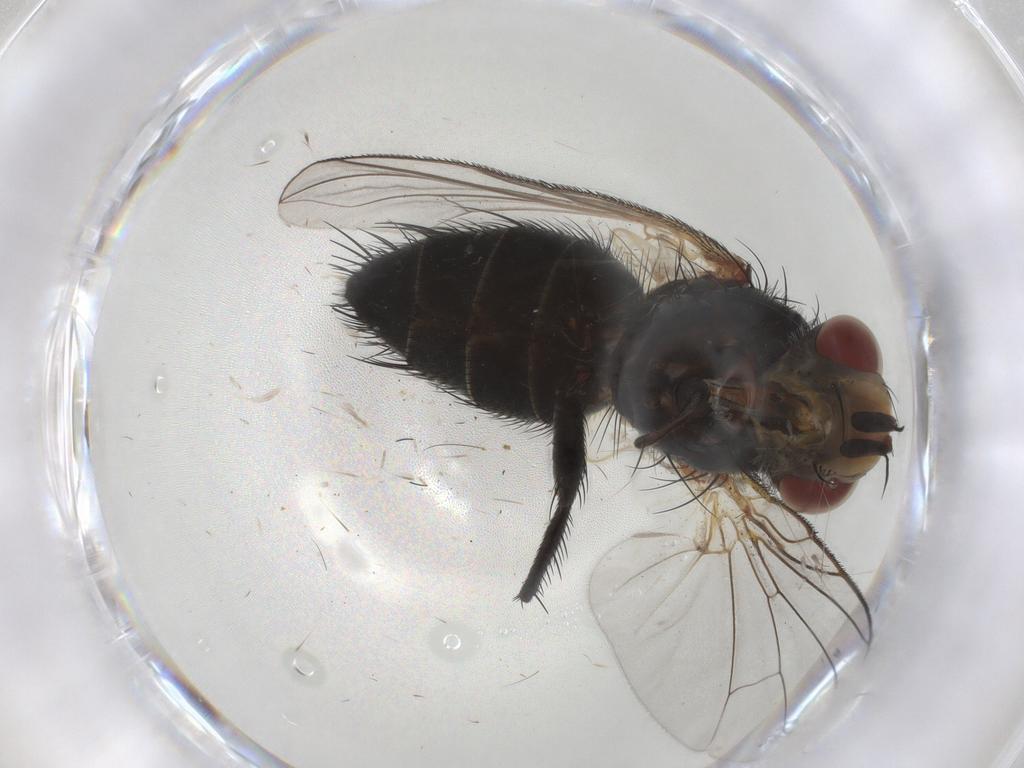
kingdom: Animalia
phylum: Arthropoda
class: Insecta
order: Diptera
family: Tachinidae
